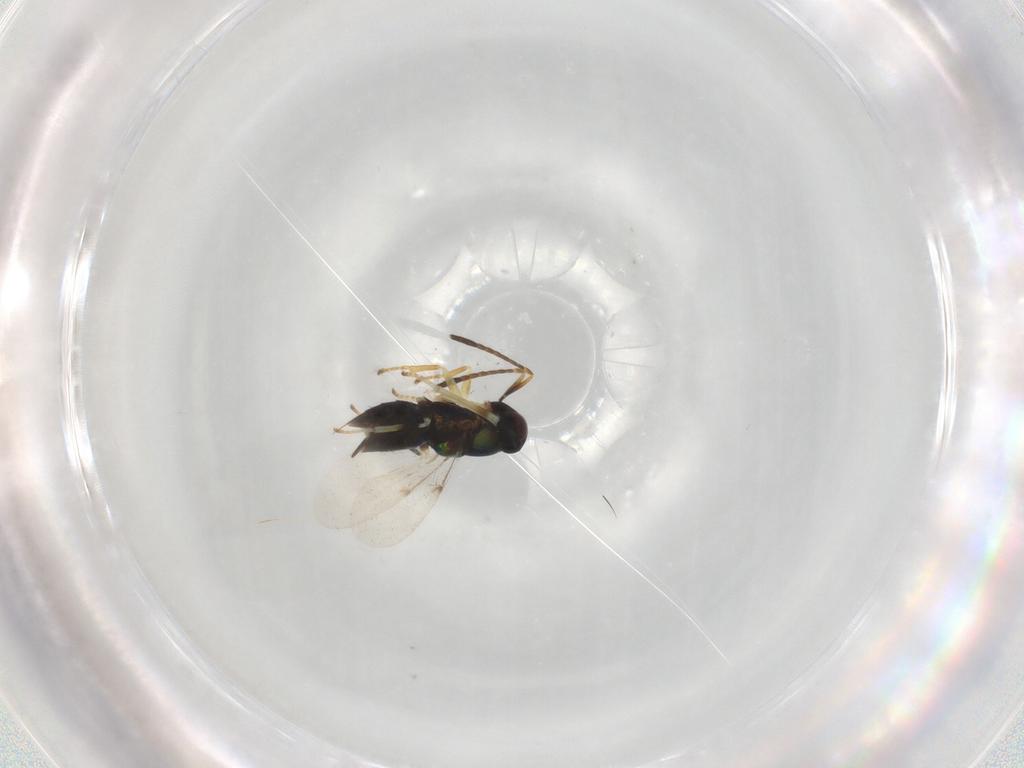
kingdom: Animalia
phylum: Arthropoda
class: Insecta
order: Hymenoptera
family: Encyrtidae
